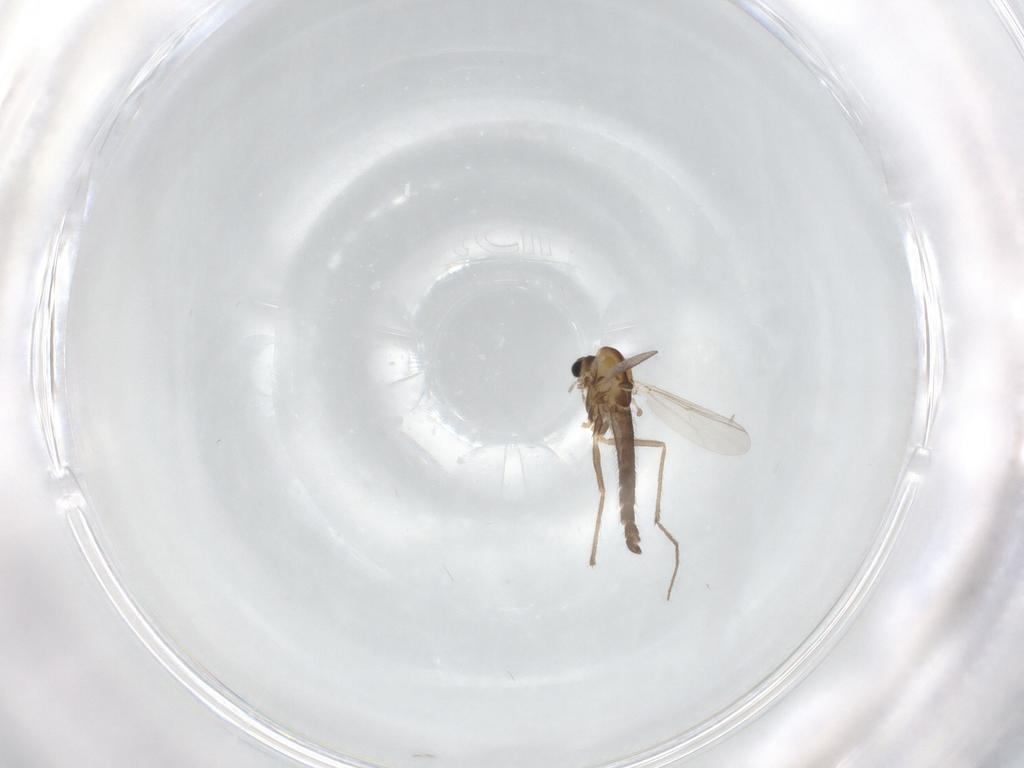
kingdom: Animalia
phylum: Arthropoda
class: Insecta
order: Diptera
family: Chironomidae
